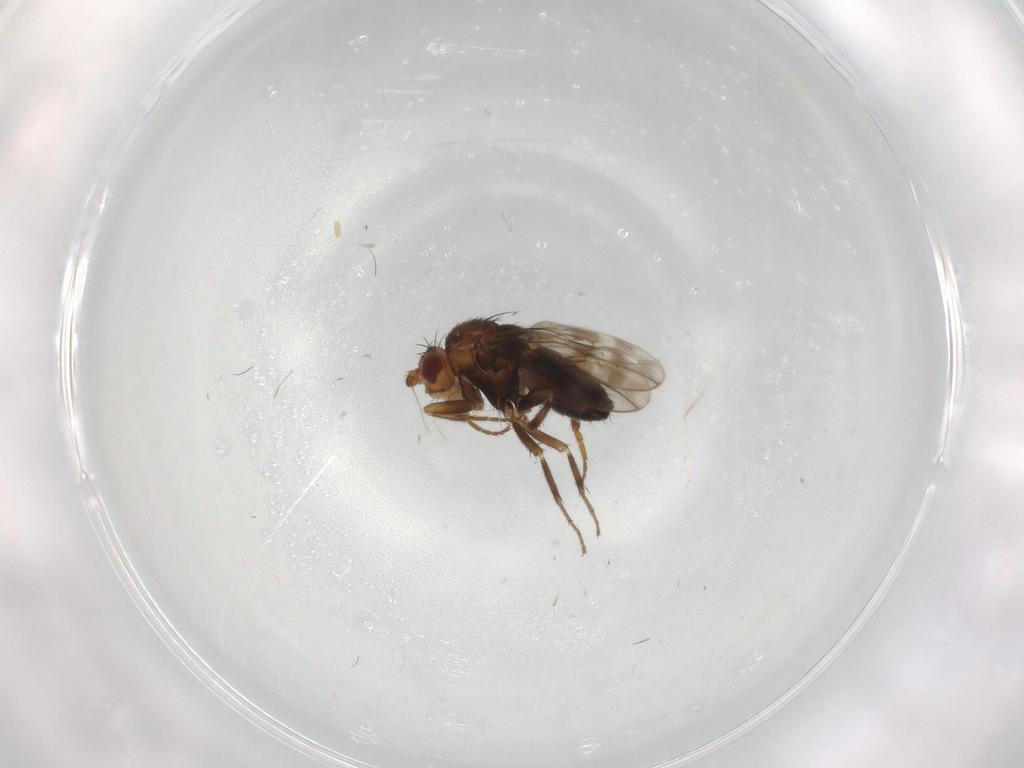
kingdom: Animalia
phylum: Arthropoda
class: Insecta
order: Diptera
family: Sphaeroceridae
